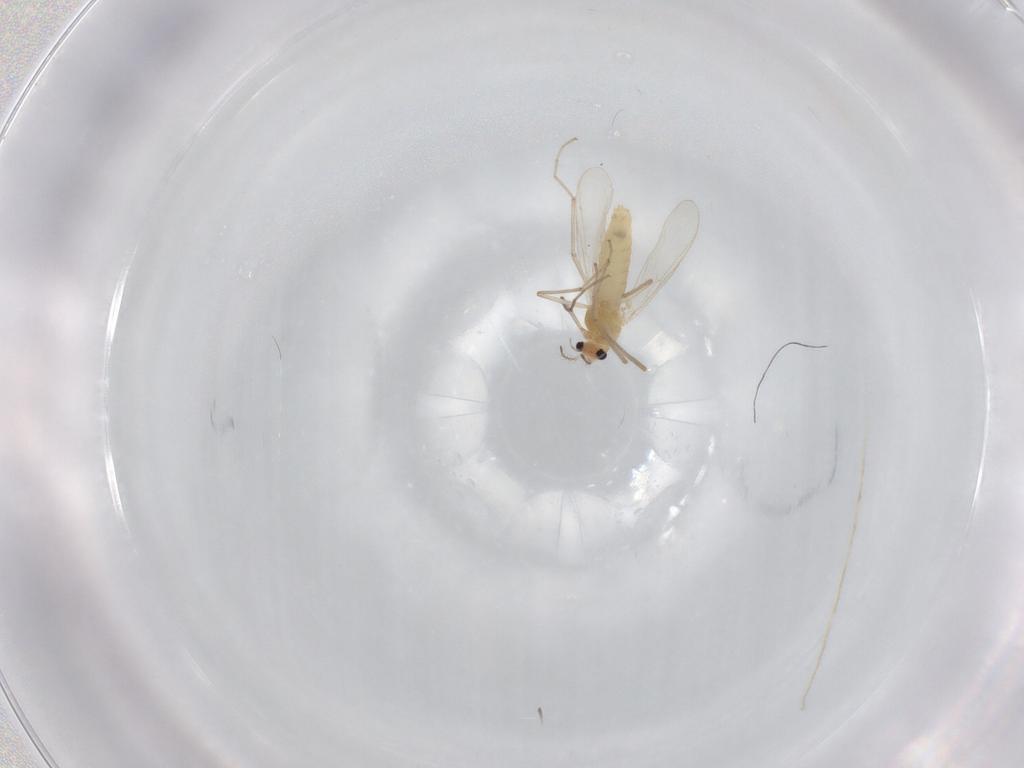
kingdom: Animalia
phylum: Arthropoda
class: Insecta
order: Diptera
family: Chironomidae
